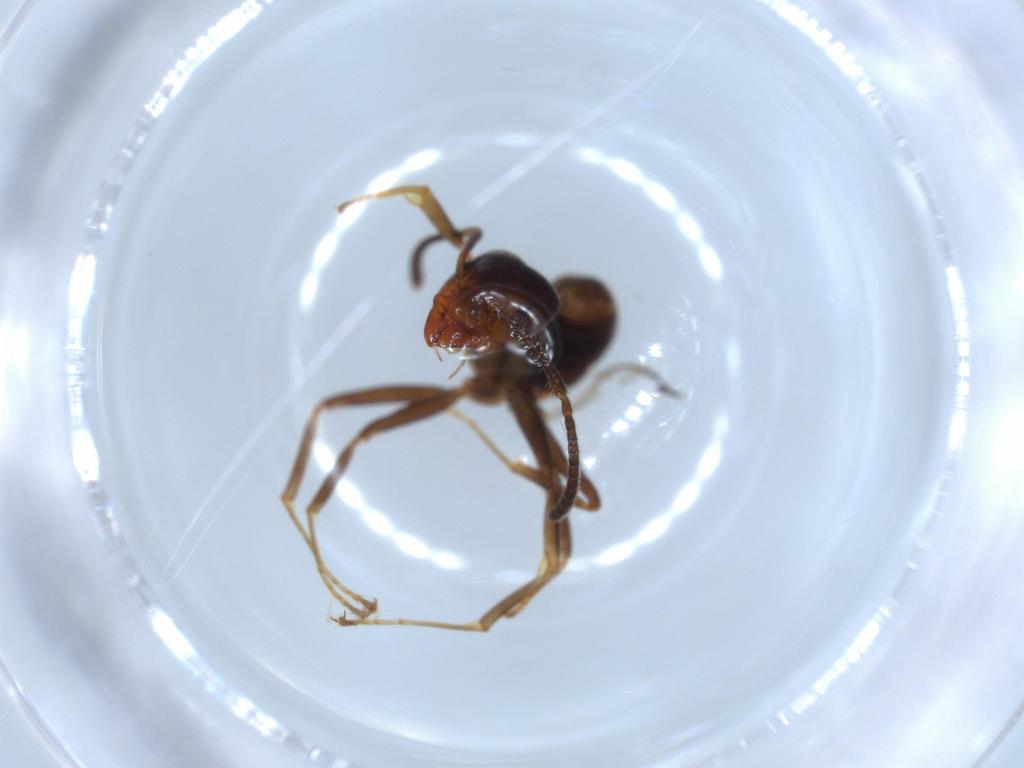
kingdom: Animalia
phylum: Arthropoda
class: Insecta
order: Hymenoptera
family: Formicidae
